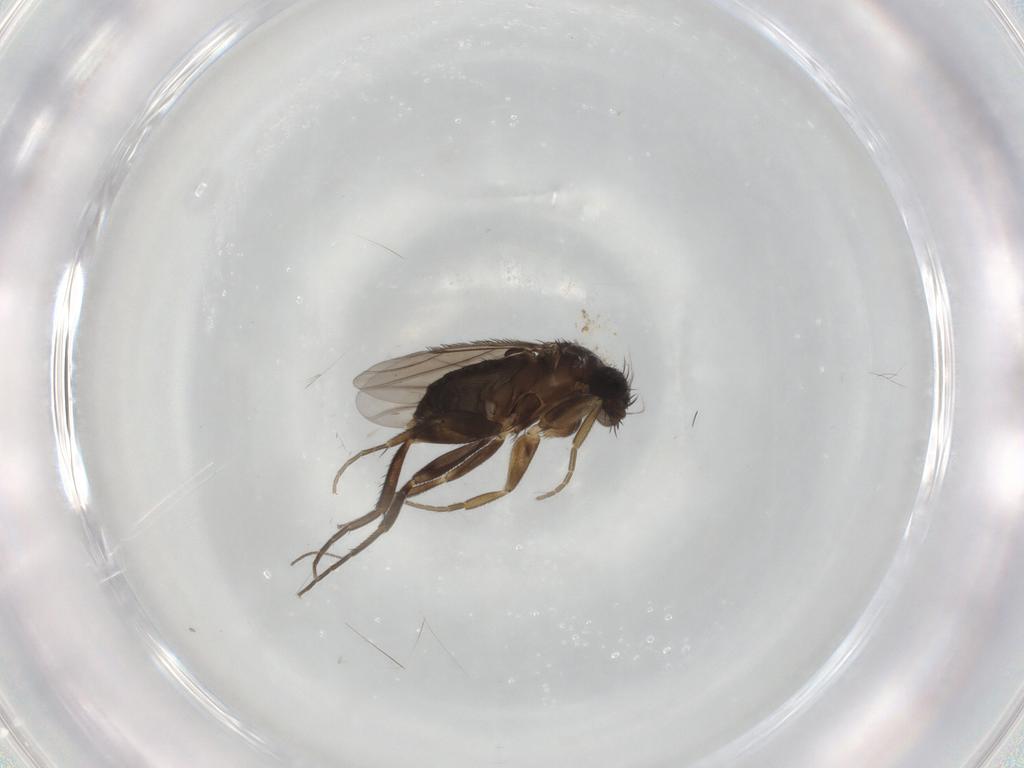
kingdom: Animalia
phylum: Arthropoda
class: Insecta
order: Diptera
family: Phoridae
